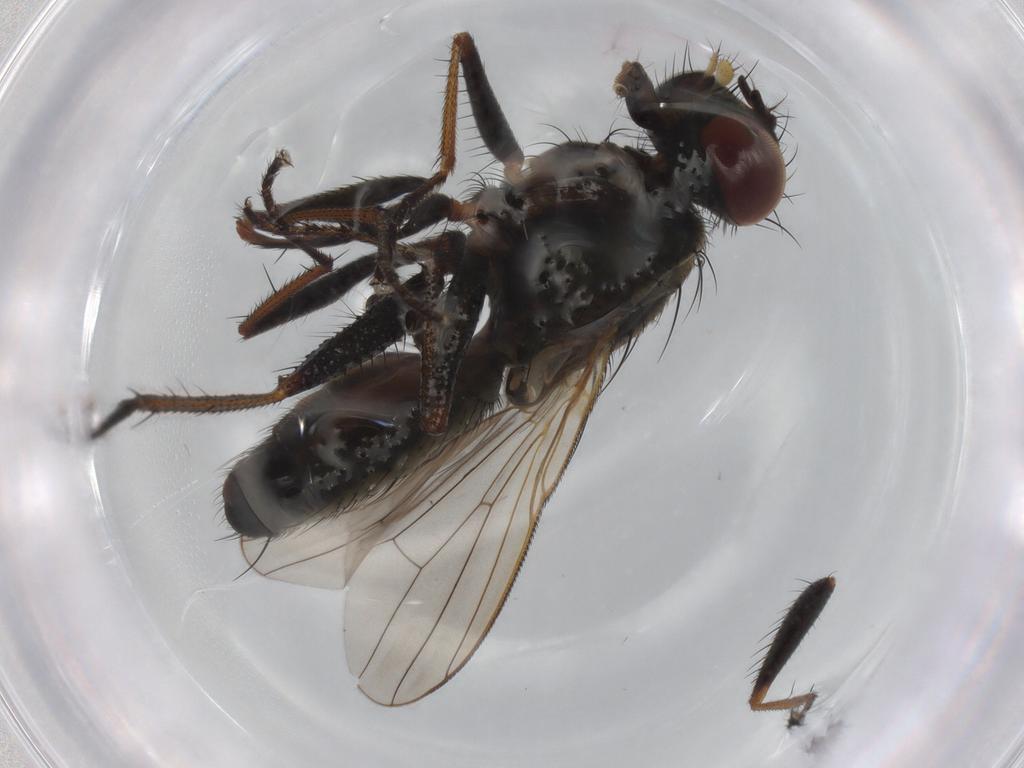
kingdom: Animalia
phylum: Arthropoda
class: Insecta
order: Diptera
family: Muscidae
